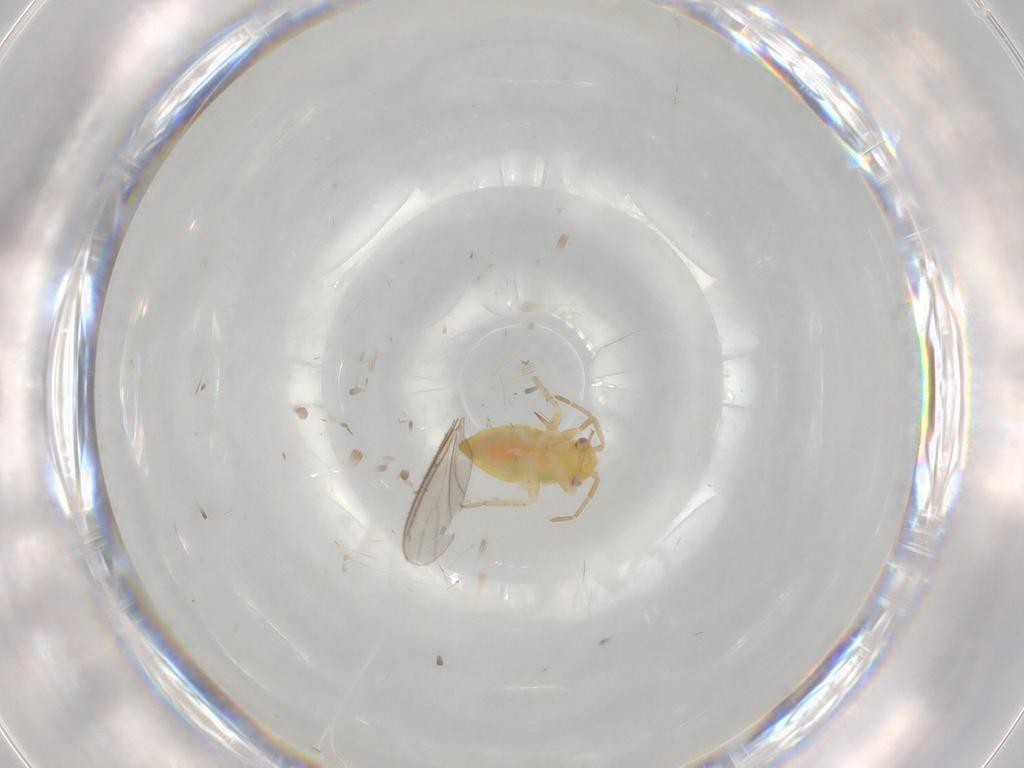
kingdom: Animalia
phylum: Arthropoda
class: Insecta
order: Hemiptera
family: Miridae
